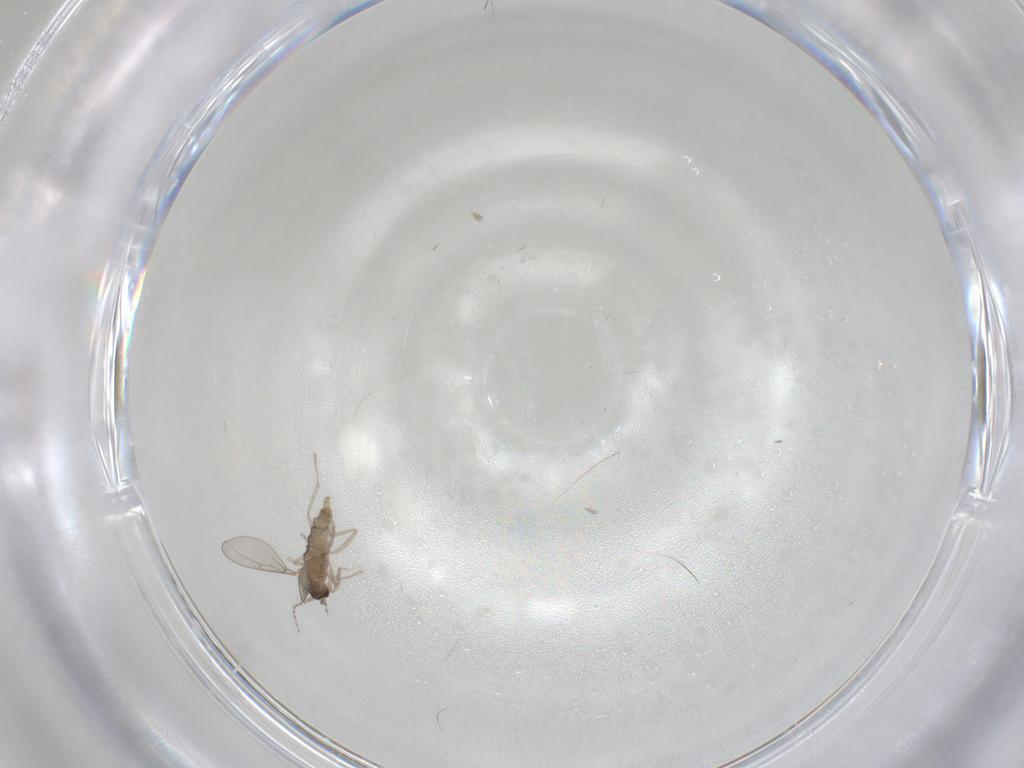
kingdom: Animalia
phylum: Arthropoda
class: Insecta
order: Diptera
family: Cecidomyiidae
